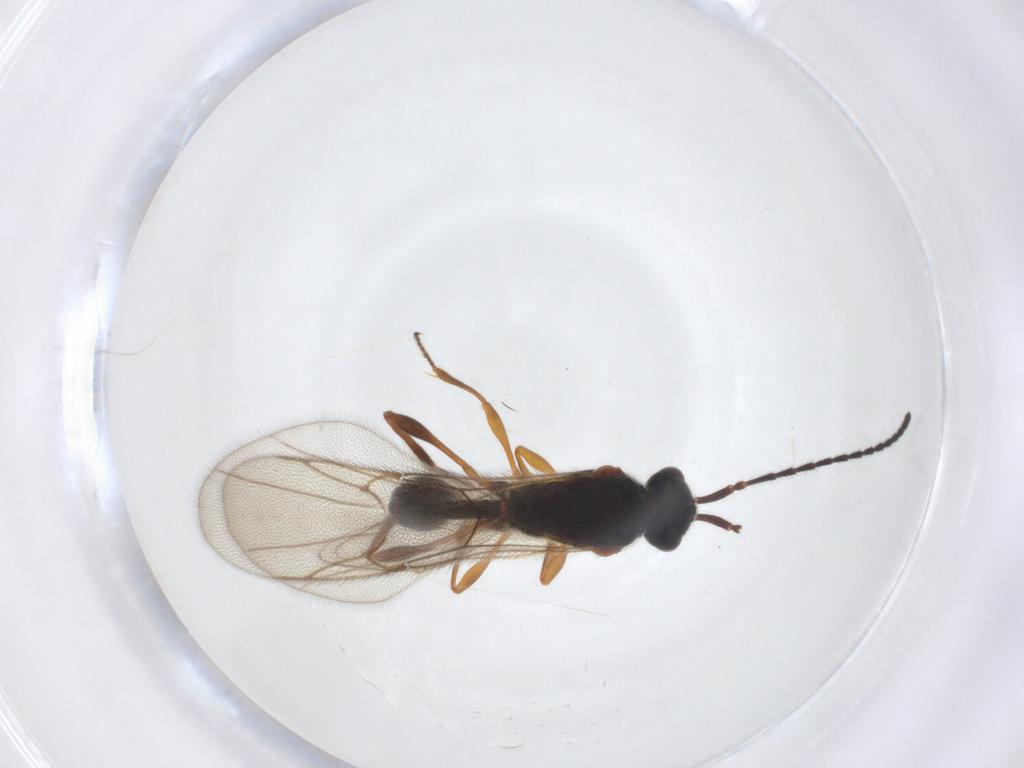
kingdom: Animalia
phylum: Arthropoda
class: Insecta
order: Hymenoptera
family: Diapriidae
